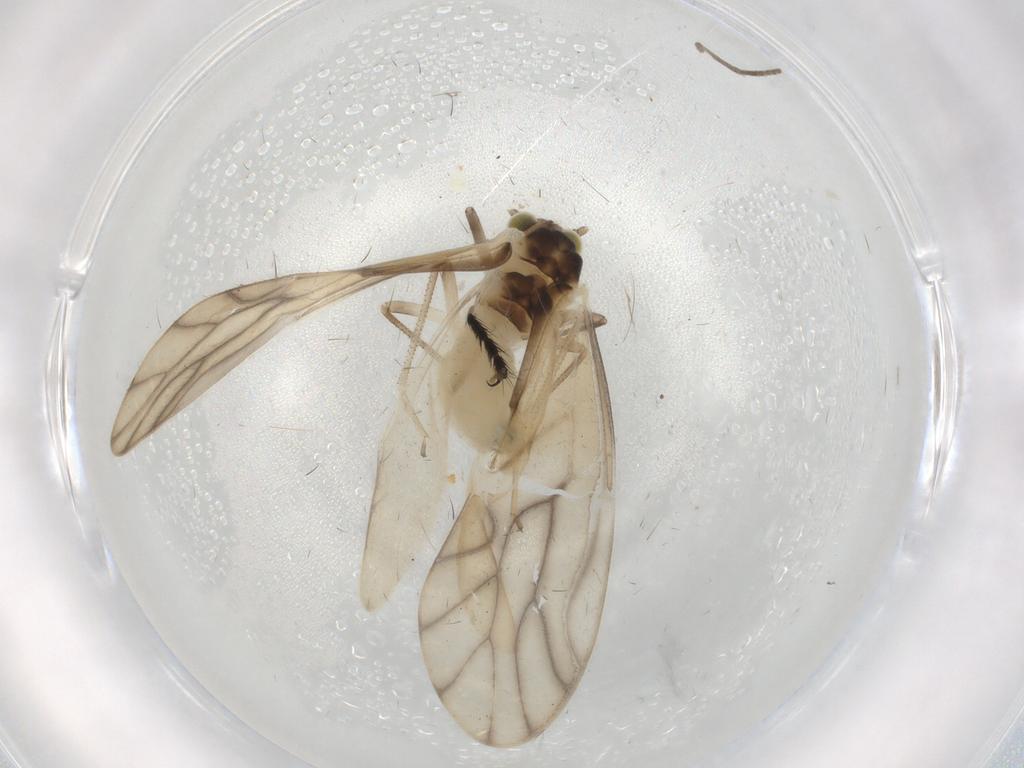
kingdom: Animalia
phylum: Arthropoda
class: Insecta
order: Psocodea
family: Caeciliusidae
